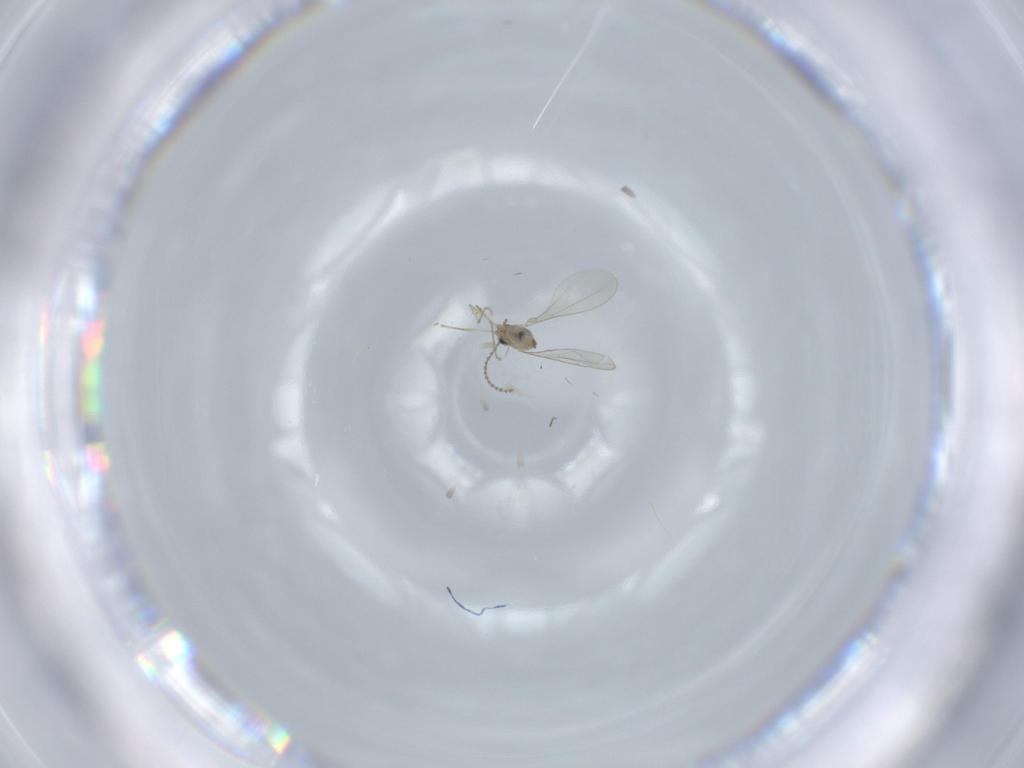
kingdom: Animalia
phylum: Arthropoda
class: Insecta
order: Diptera
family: Cecidomyiidae
